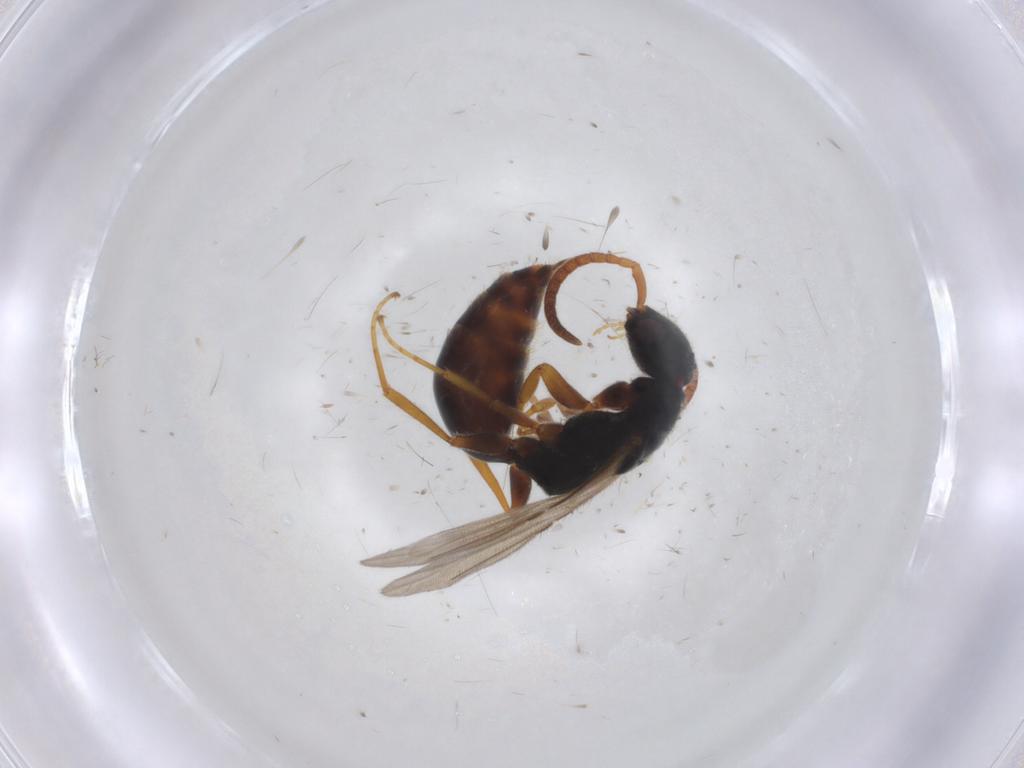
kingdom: Animalia
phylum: Arthropoda
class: Insecta
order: Hymenoptera
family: Bethylidae
